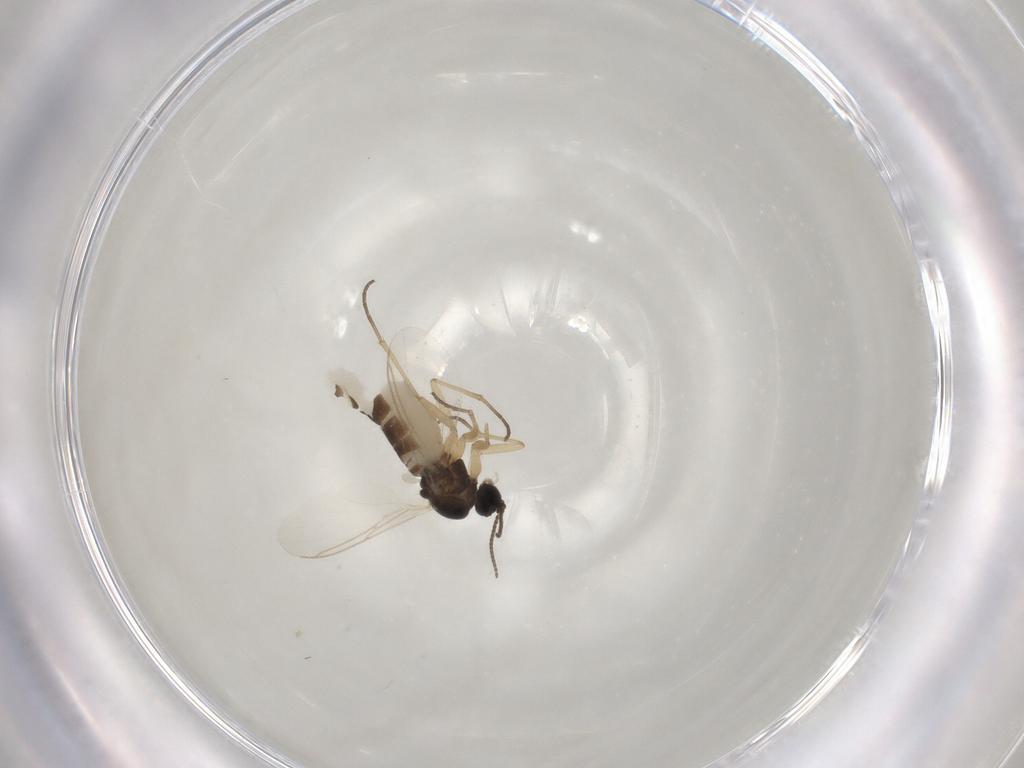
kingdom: Animalia
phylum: Arthropoda
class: Insecta
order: Diptera
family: Sciaridae
